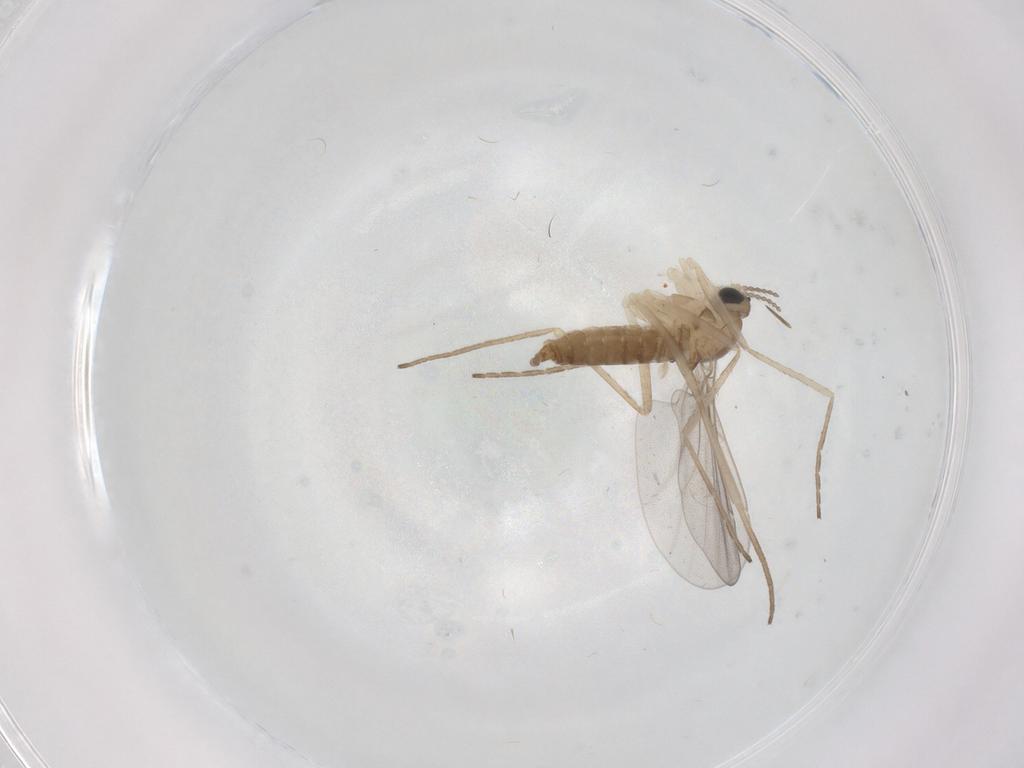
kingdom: Animalia
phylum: Arthropoda
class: Insecta
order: Diptera
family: Cecidomyiidae
